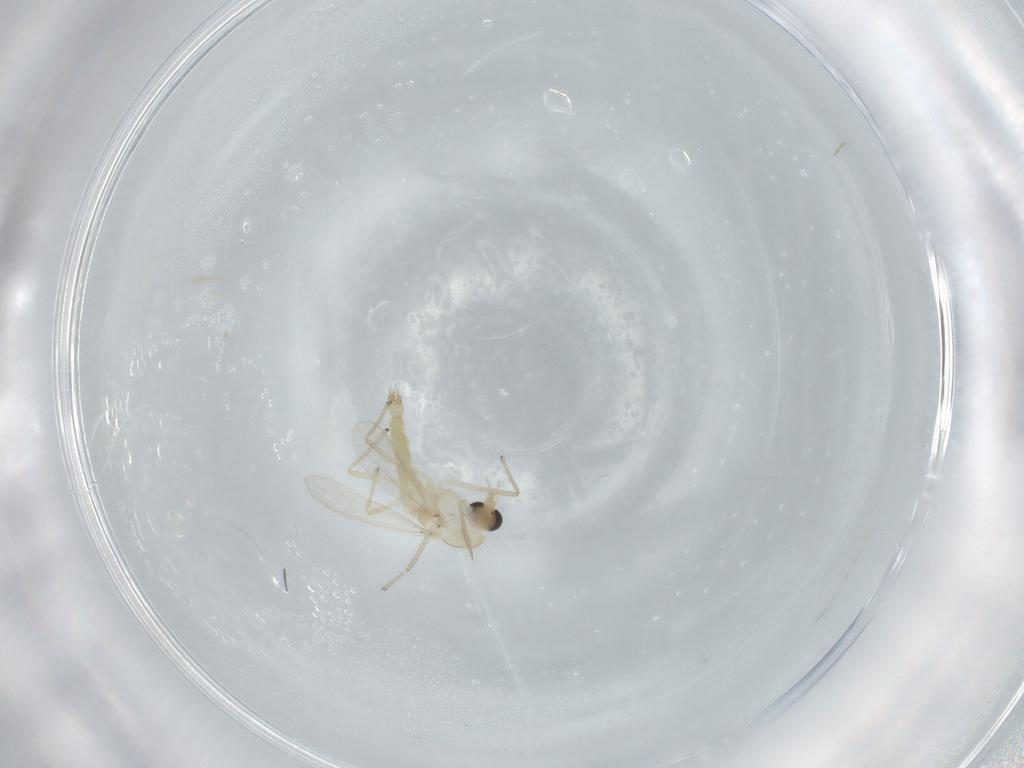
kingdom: Animalia
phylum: Arthropoda
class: Insecta
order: Diptera
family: Chironomidae
